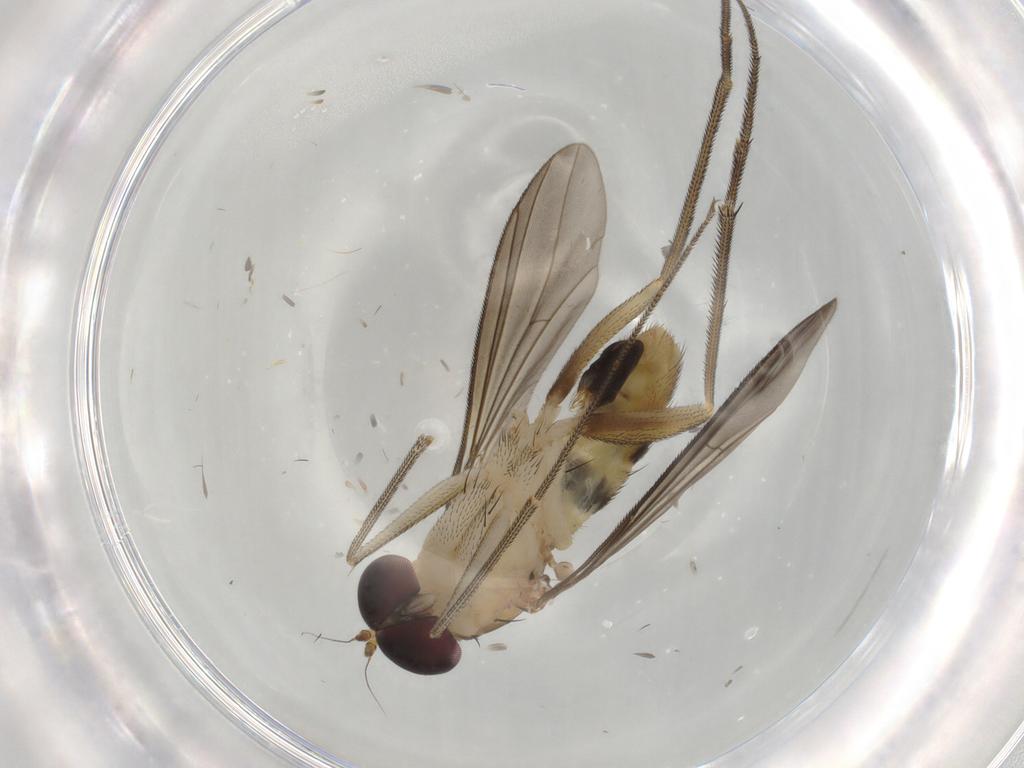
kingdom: Animalia
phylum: Arthropoda
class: Insecta
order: Diptera
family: Dolichopodidae
